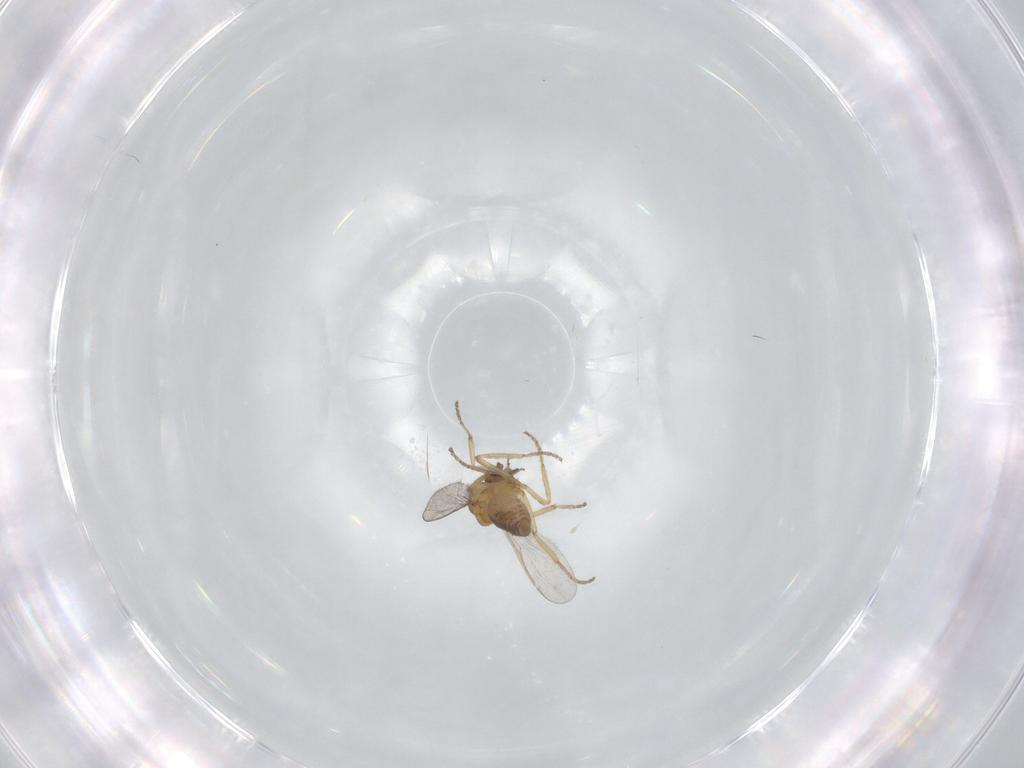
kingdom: Animalia
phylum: Arthropoda
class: Insecta
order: Diptera
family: Ceratopogonidae
